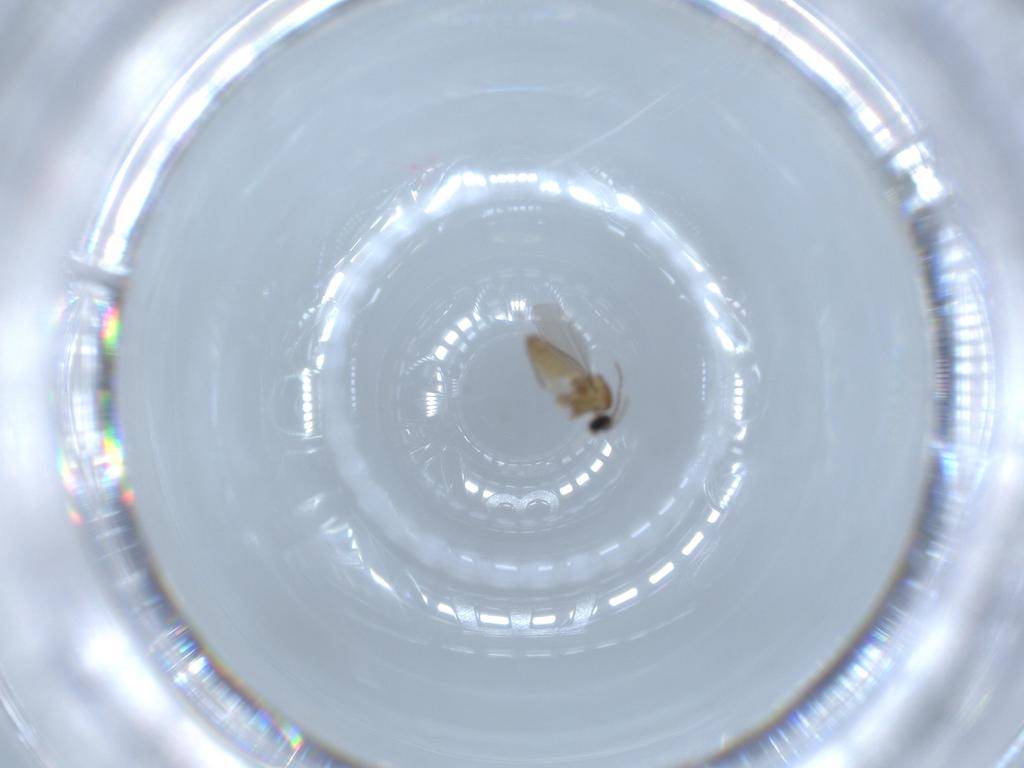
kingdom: Animalia
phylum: Arthropoda
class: Insecta
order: Diptera
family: Cecidomyiidae
